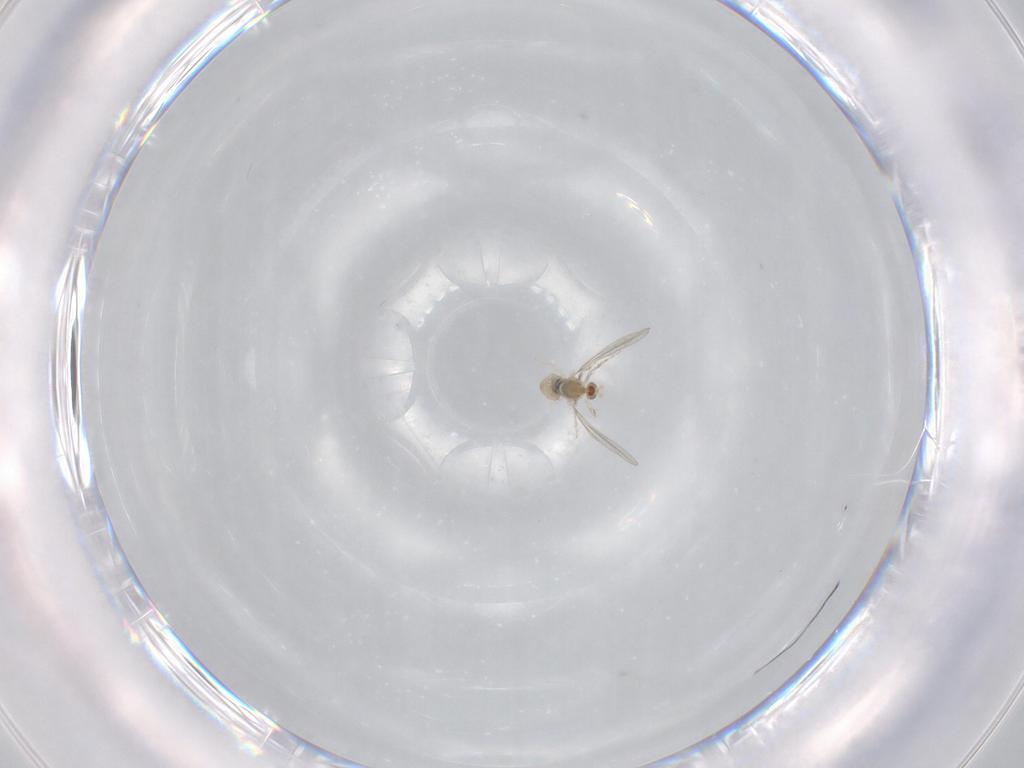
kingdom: Animalia
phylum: Arthropoda
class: Insecta
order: Diptera
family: Cecidomyiidae
